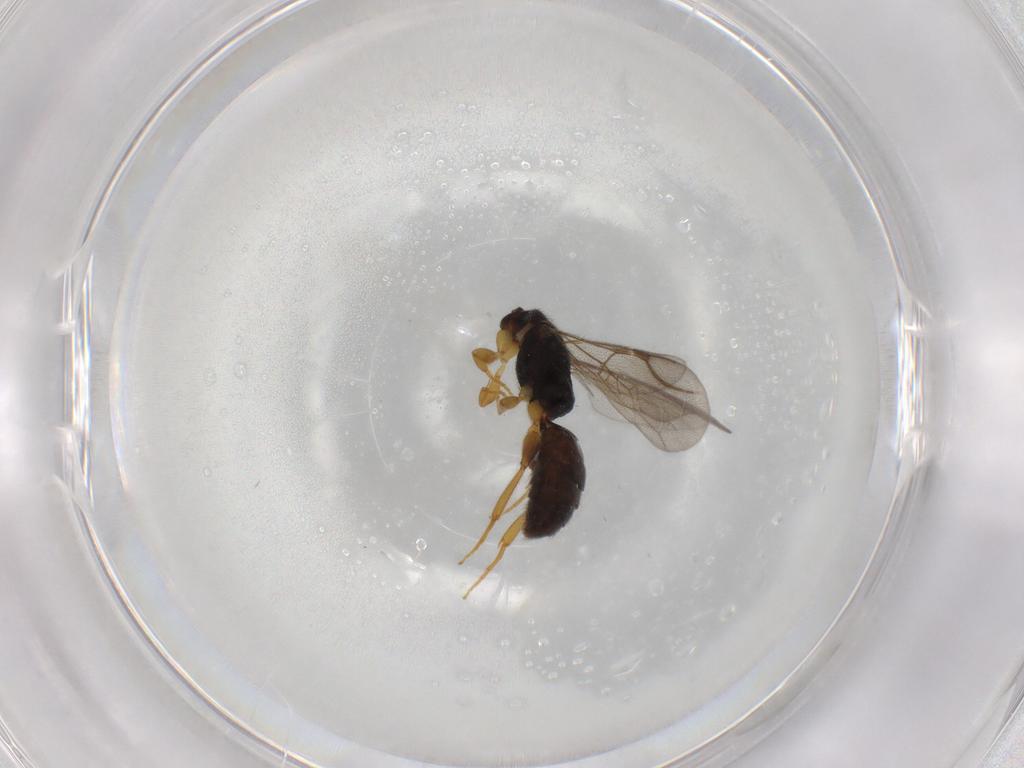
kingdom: Animalia
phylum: Arthropoda
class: Insecta
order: Hymenoptera
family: Bethylidae
